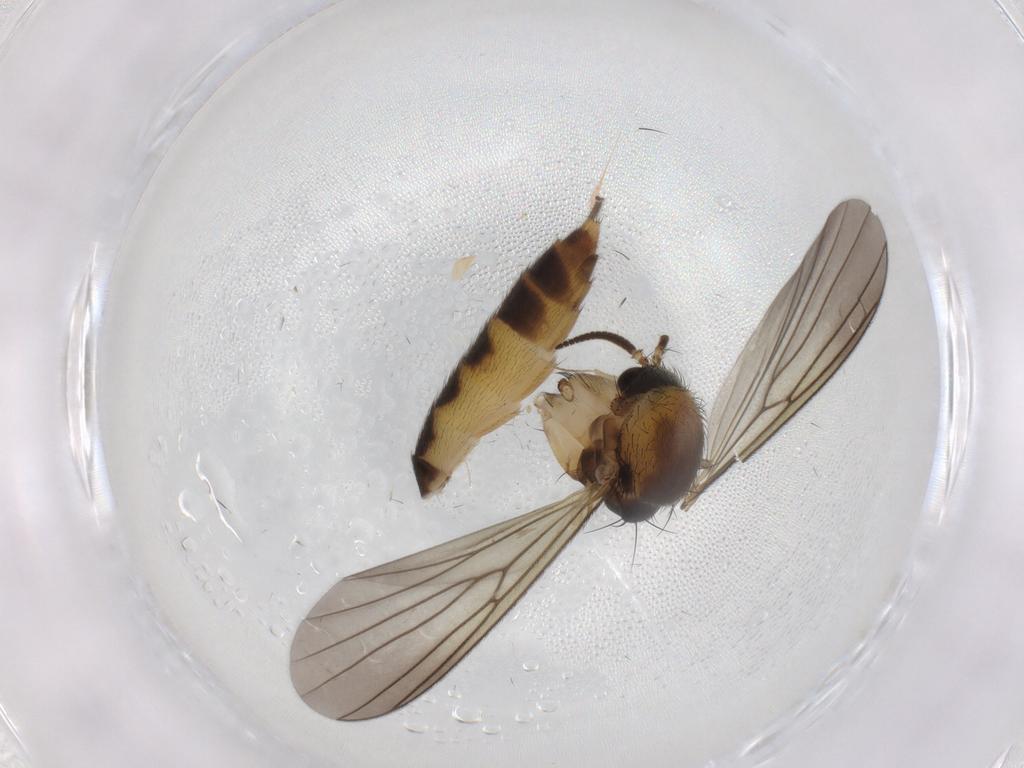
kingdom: Animalia
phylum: Arthropoda
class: Insecta
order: Diptera
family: Mycetophilidae
